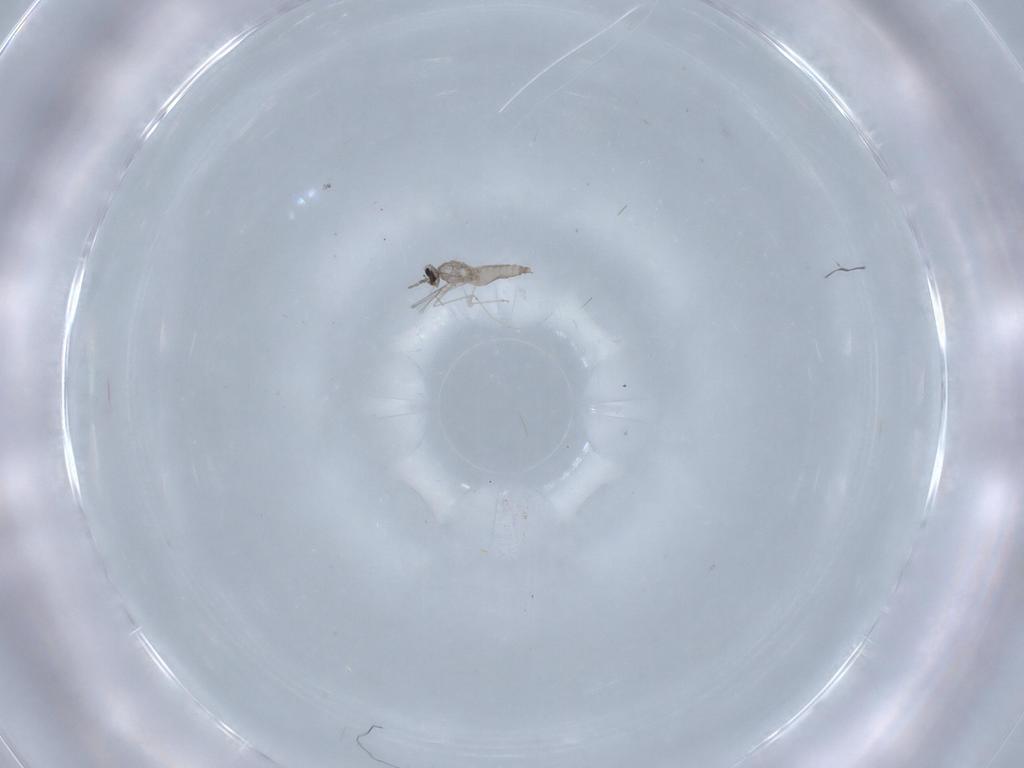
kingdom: Animalia
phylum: Arthropoda
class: Insecta
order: Diptera
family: Cecidomyiidae
